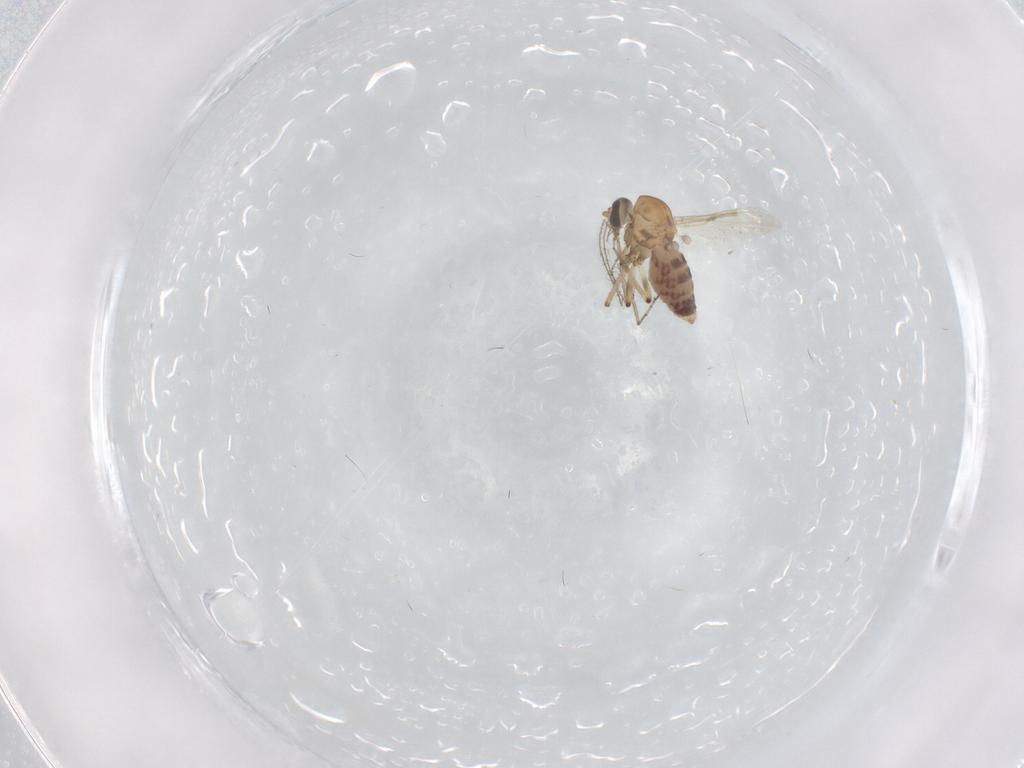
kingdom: Animalia
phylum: Arthropoda
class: Insecta
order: Diptera
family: Ceratopogonidae
